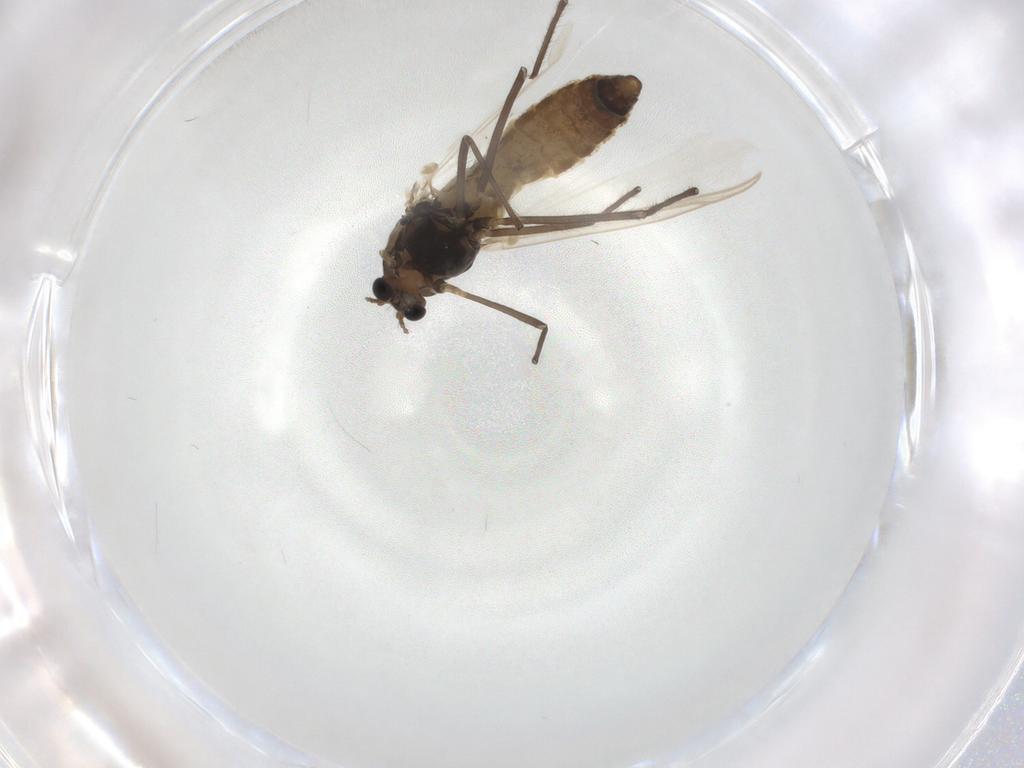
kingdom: Animalia
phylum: Arthropoda
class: Insecta
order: Diptera
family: Chironomidae
